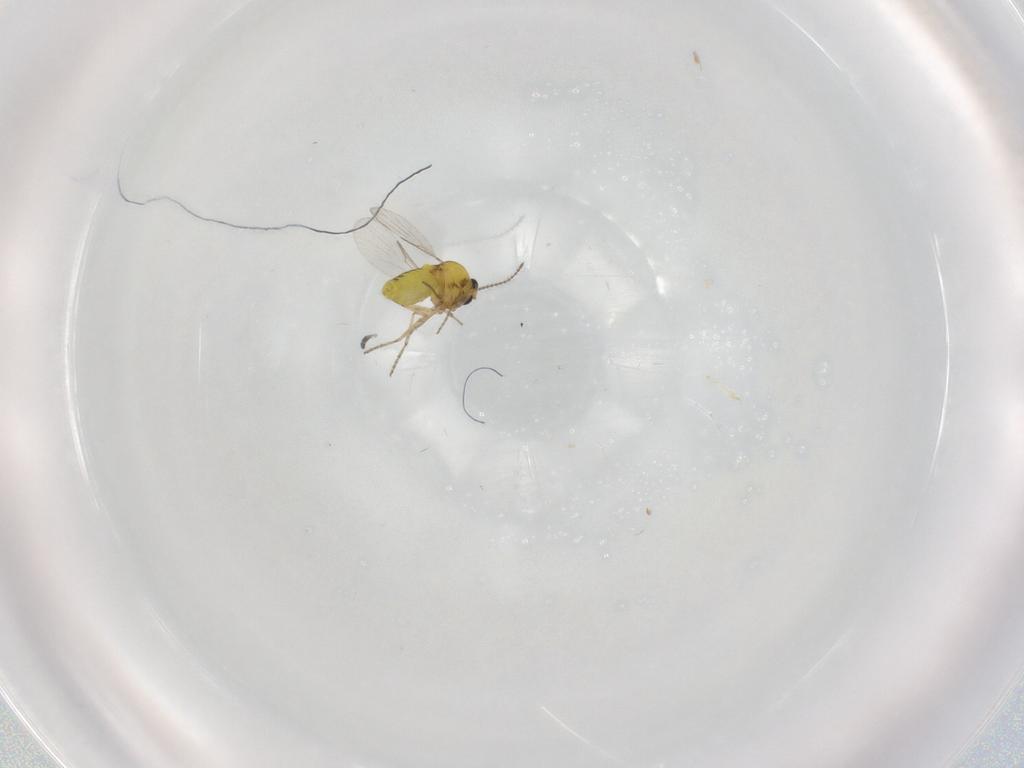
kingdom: Animalia
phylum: Arthropoda
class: Insecta
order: Diptera
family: Ceratopogonidae
